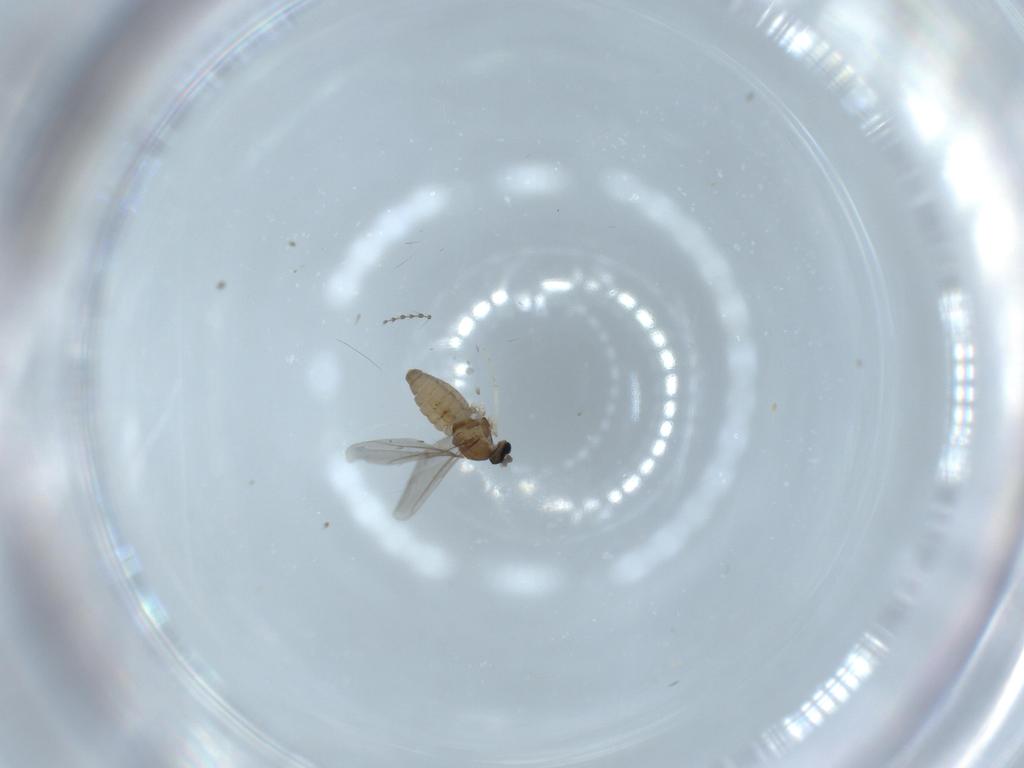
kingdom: Animalia
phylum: Arthropoda
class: Insecta
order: Diptera
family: Cecidomyiidae
